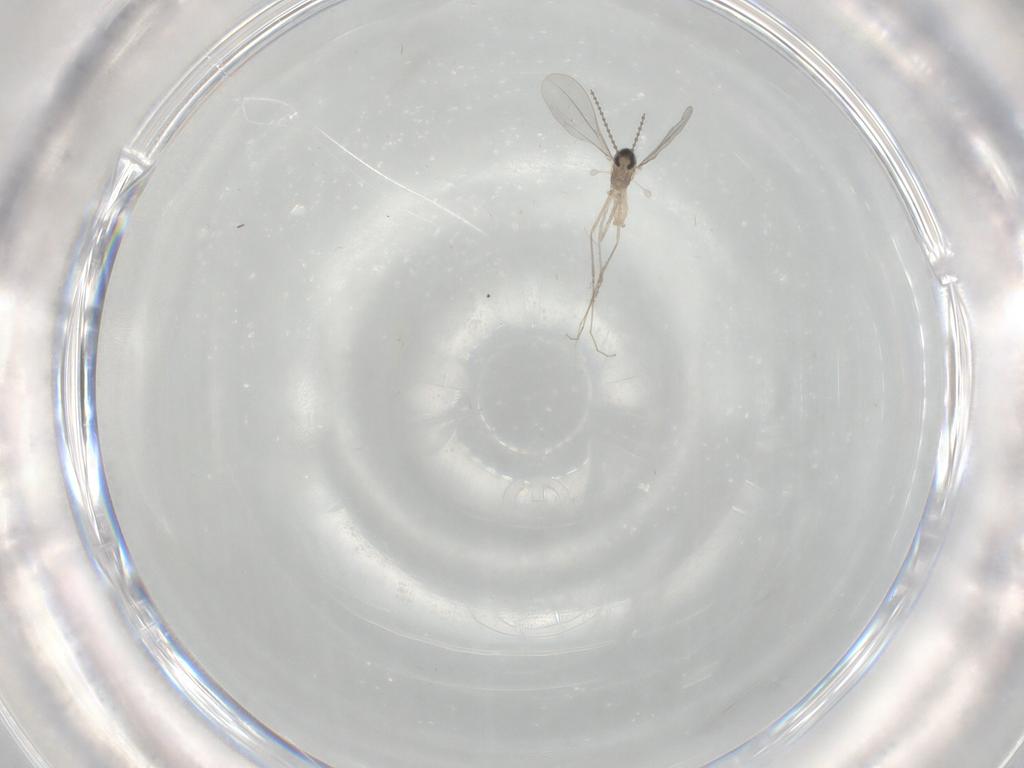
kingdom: Animalia
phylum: Arthropoda
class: Insecta
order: Diptera
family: Cecidomyiidae
